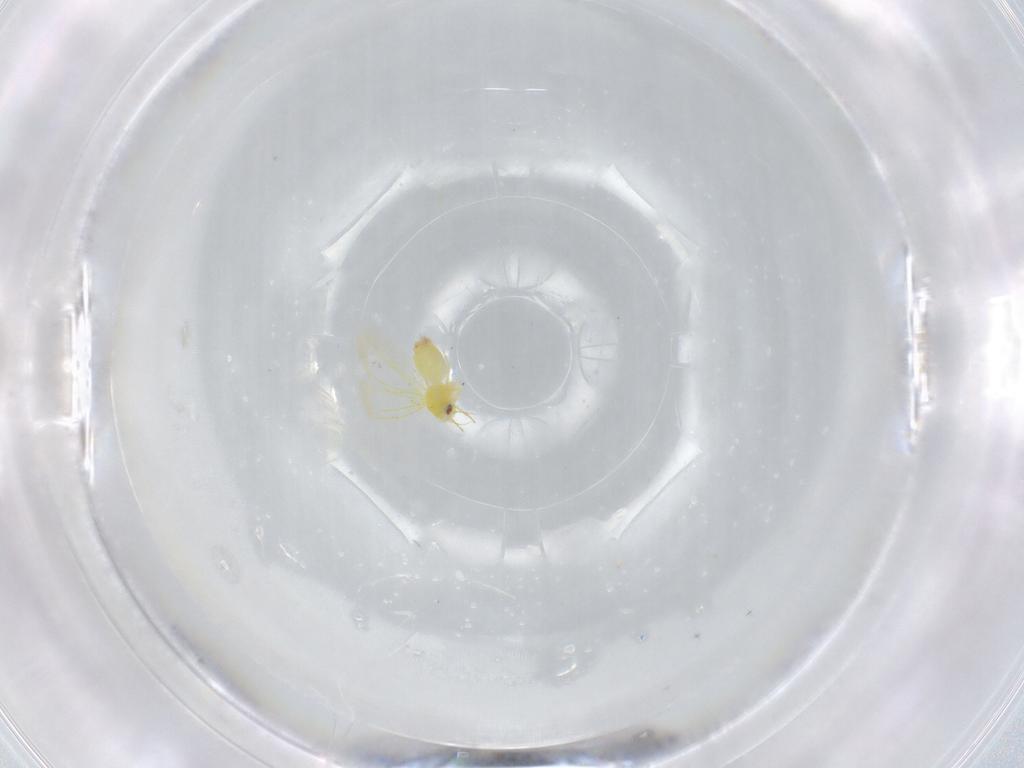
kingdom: Animalia
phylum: Arthropoda
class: Insecta
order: Hemiptera
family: Aleyrodidae
